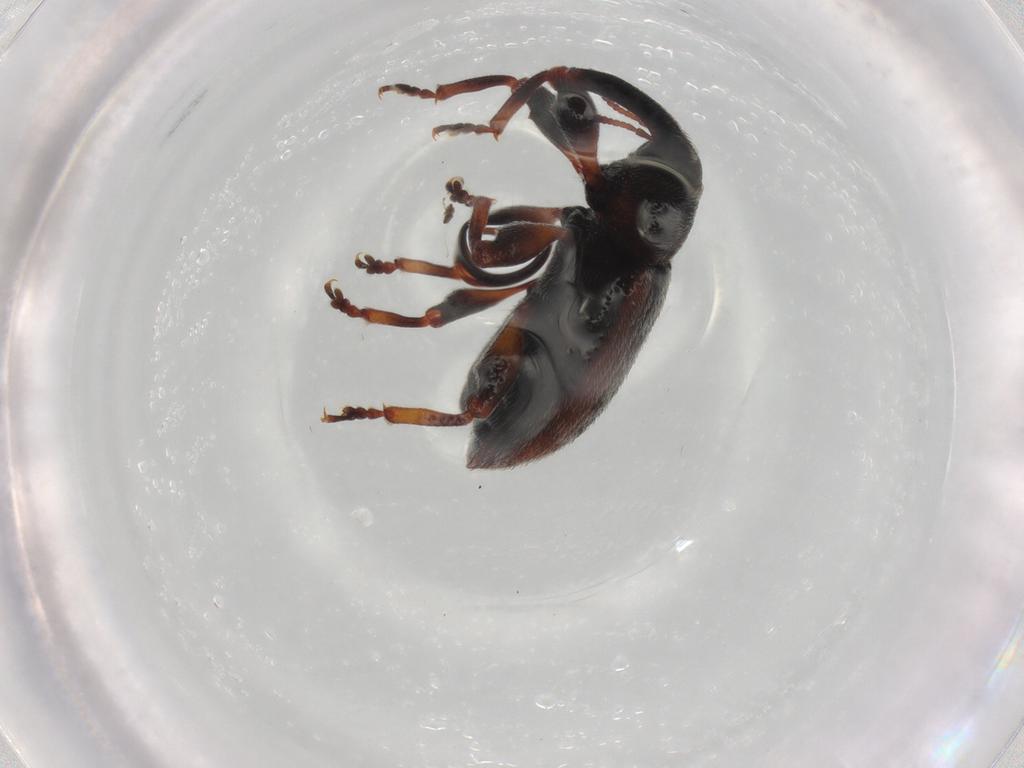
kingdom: Animalia
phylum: Arthropoda
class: Insecta
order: Coleoptera
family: Curculionidae
